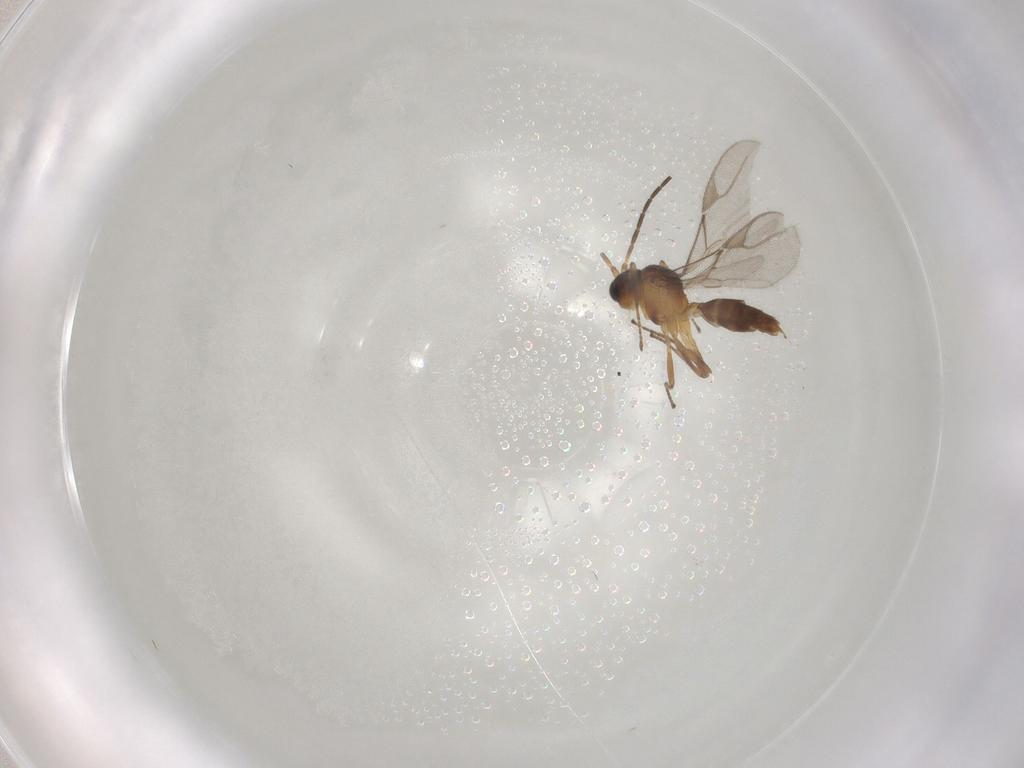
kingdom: Animalia
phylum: Arthropoda
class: Insecta
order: Hymenoptera
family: Braconidae
